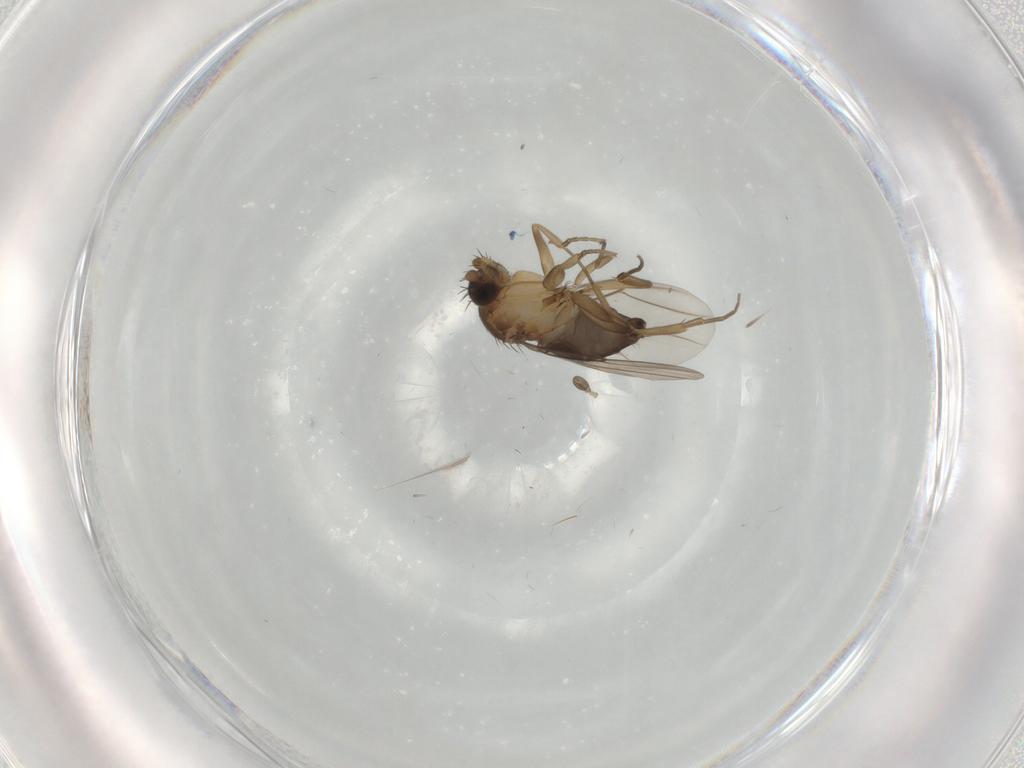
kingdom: Animalia
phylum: Arthropoda
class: Insecta
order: Diptera
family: Phoridae
